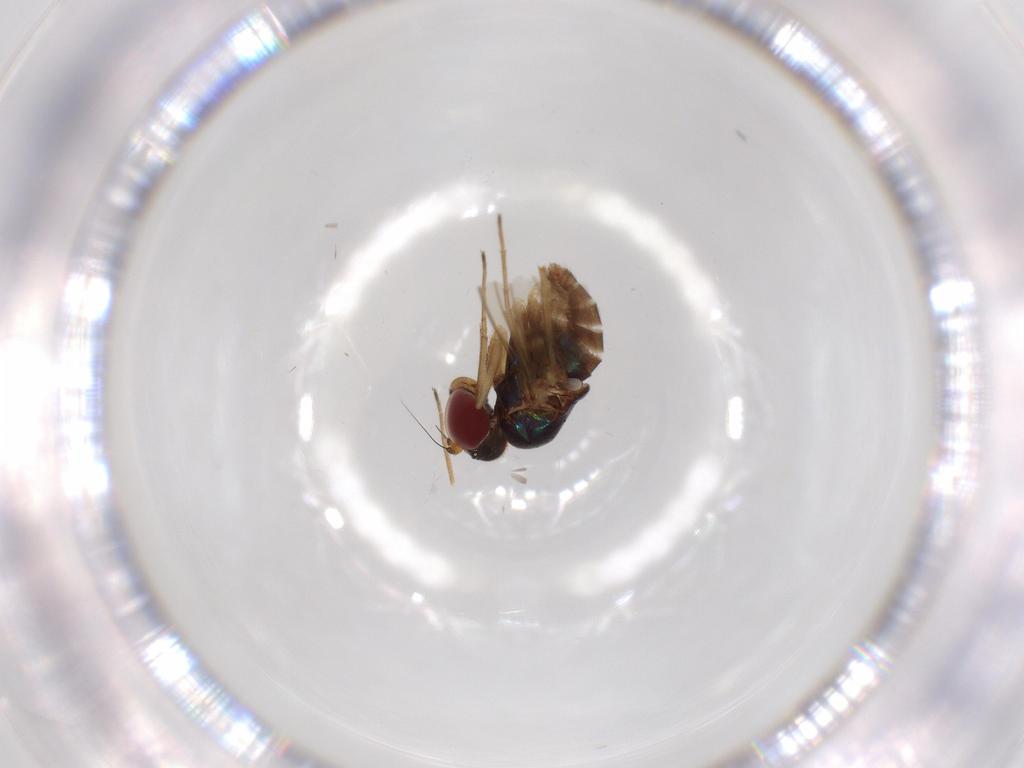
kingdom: Animalia
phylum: Arthropoda
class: Insecta
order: Diptera
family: Dolichopodidae
